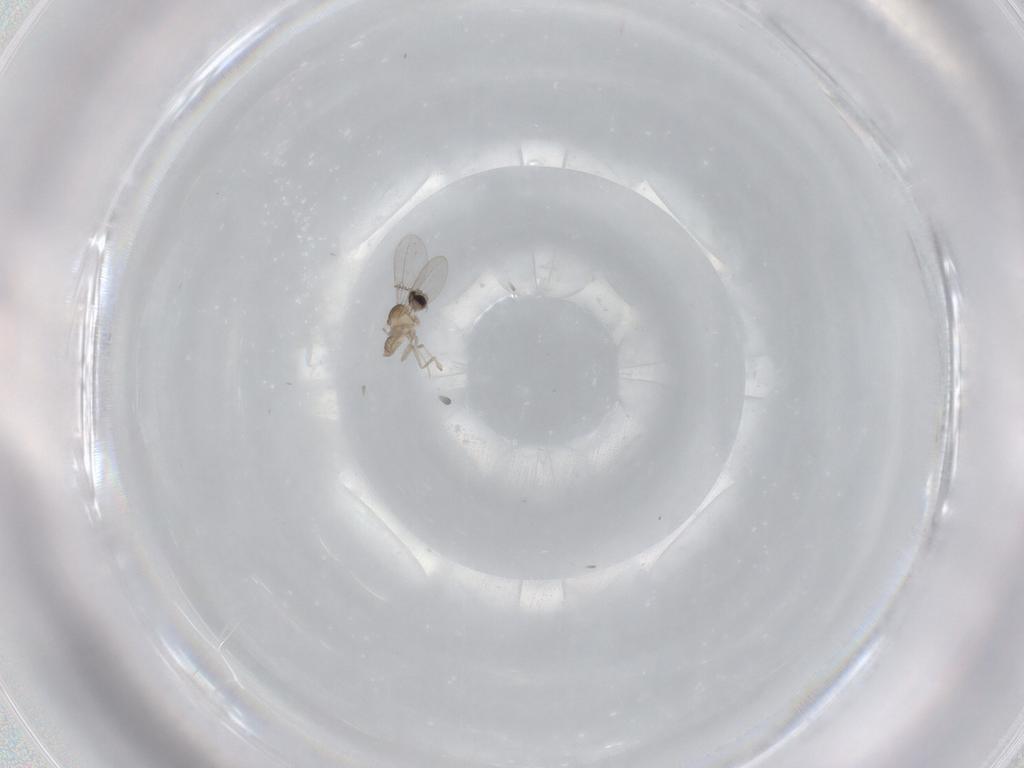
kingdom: Animalia
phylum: Arthropoda
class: Insecta
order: Diptera
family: Cecidomyiidae
